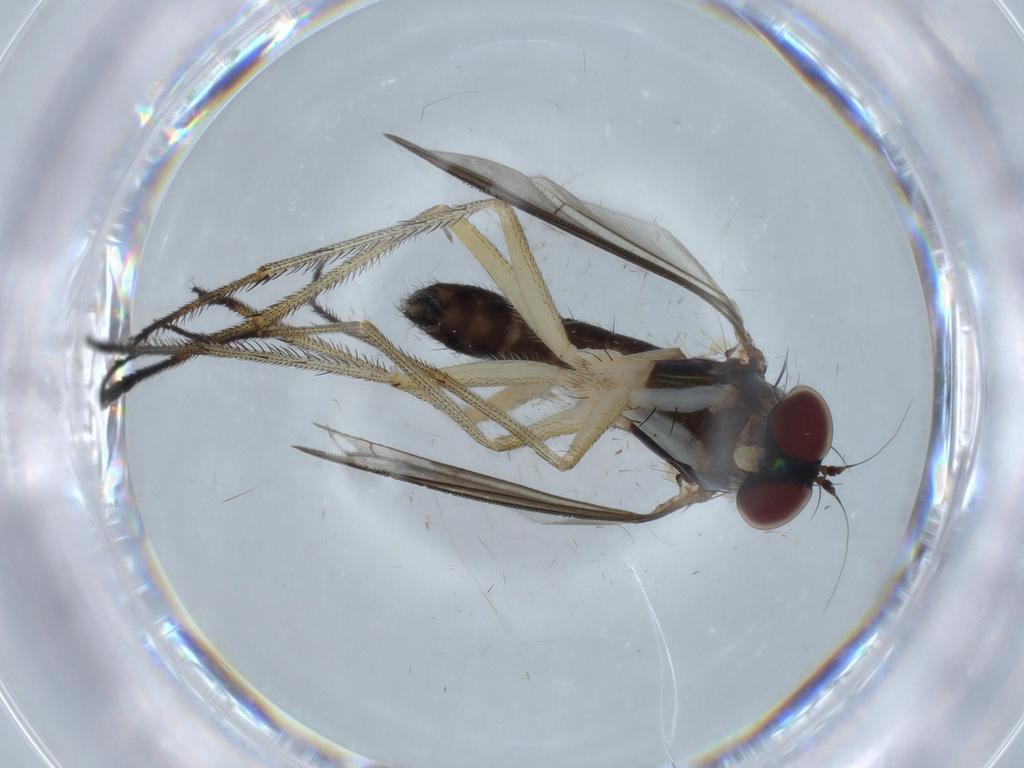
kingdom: Animalia
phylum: Arthropoda
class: Insecta
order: Diptera
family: Dolichopodidae
